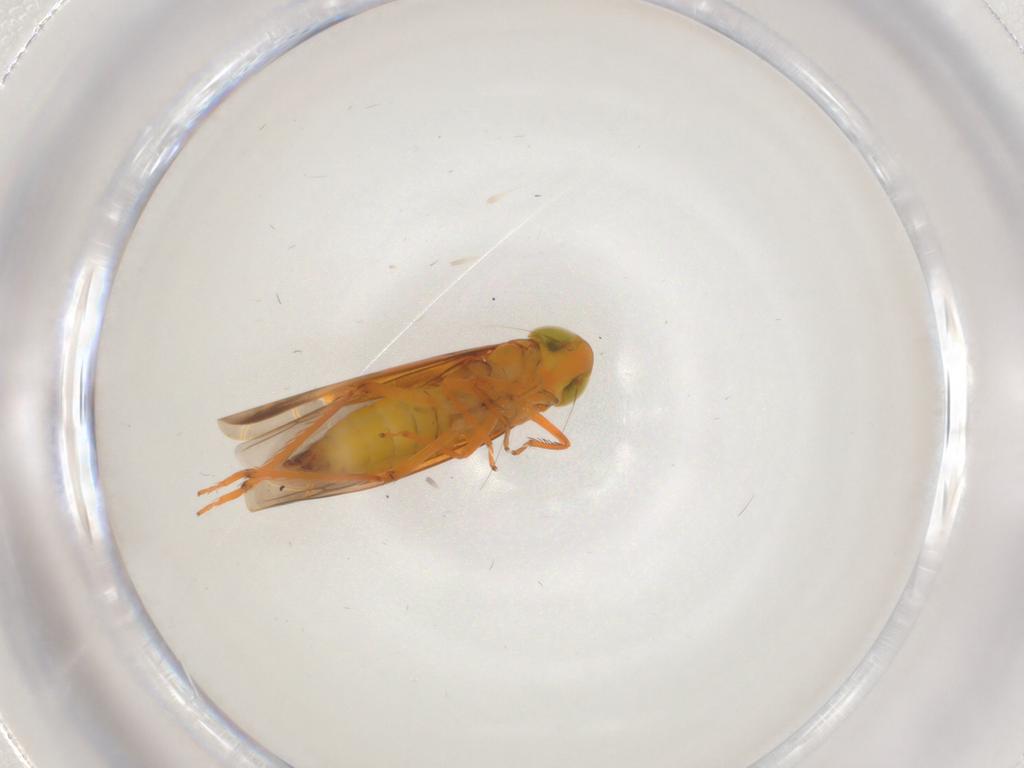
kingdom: Animalia
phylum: Arthropoda
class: Insecta
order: Hemiptera
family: Cicadellidae
